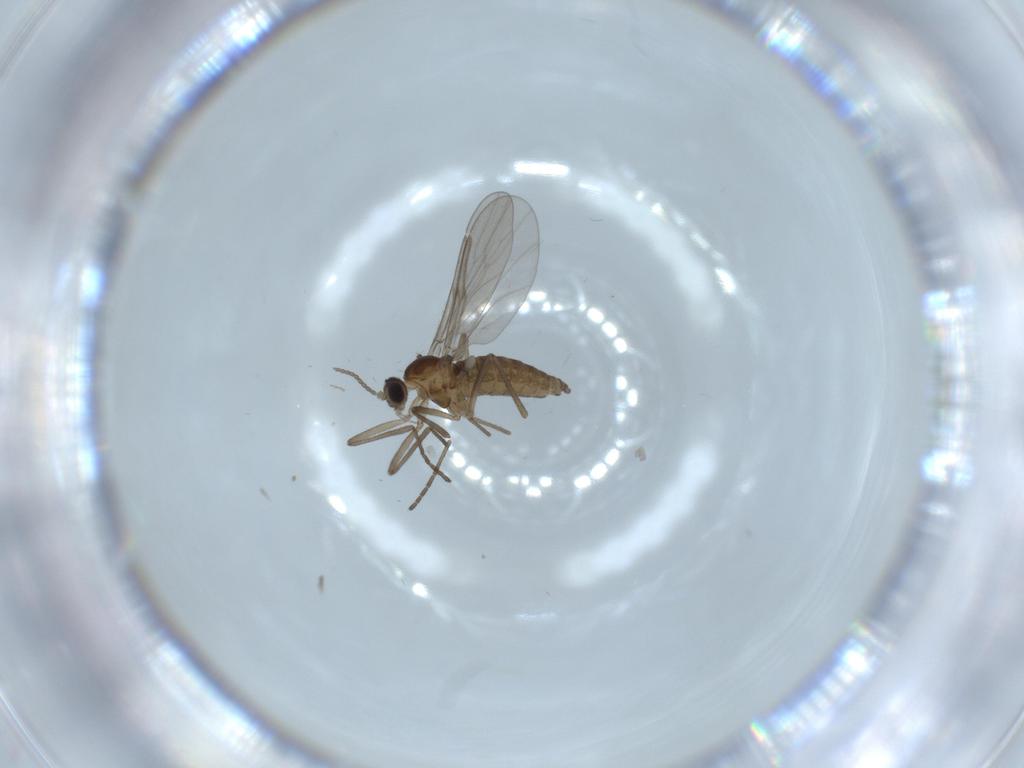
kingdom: Animalia
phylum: Arthropoda
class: Insecta
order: Diptera
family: Cecidomyiidae
